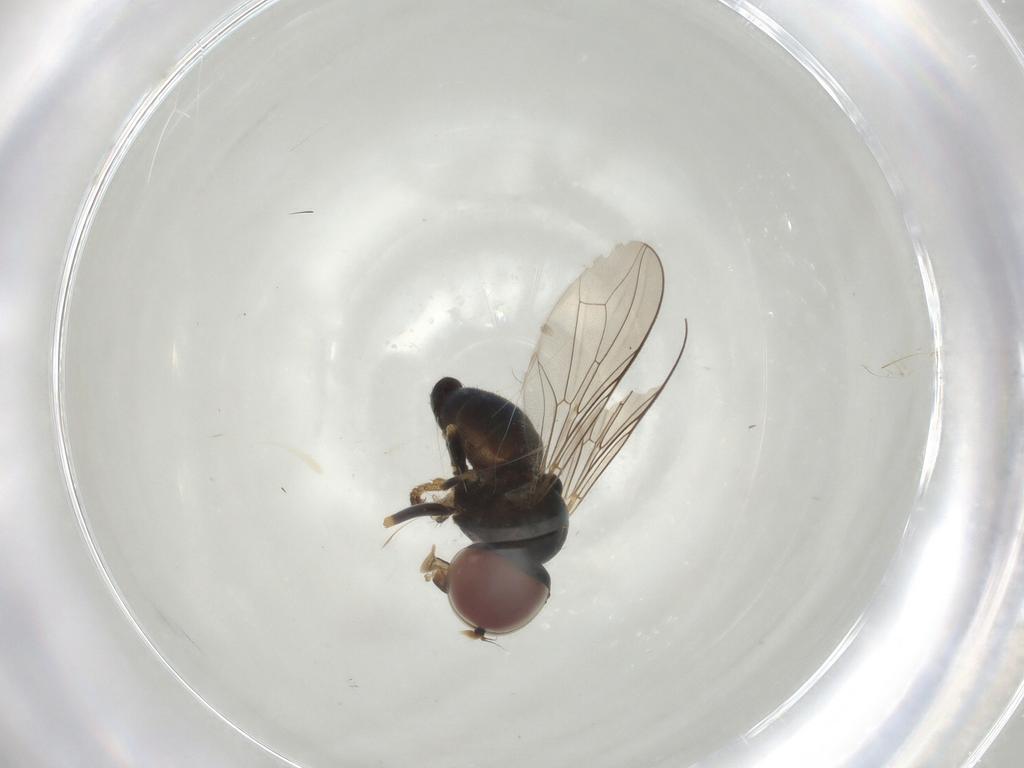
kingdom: Animalia
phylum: Arthropoda
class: Insecta
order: Diptera
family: Pipunculidae
